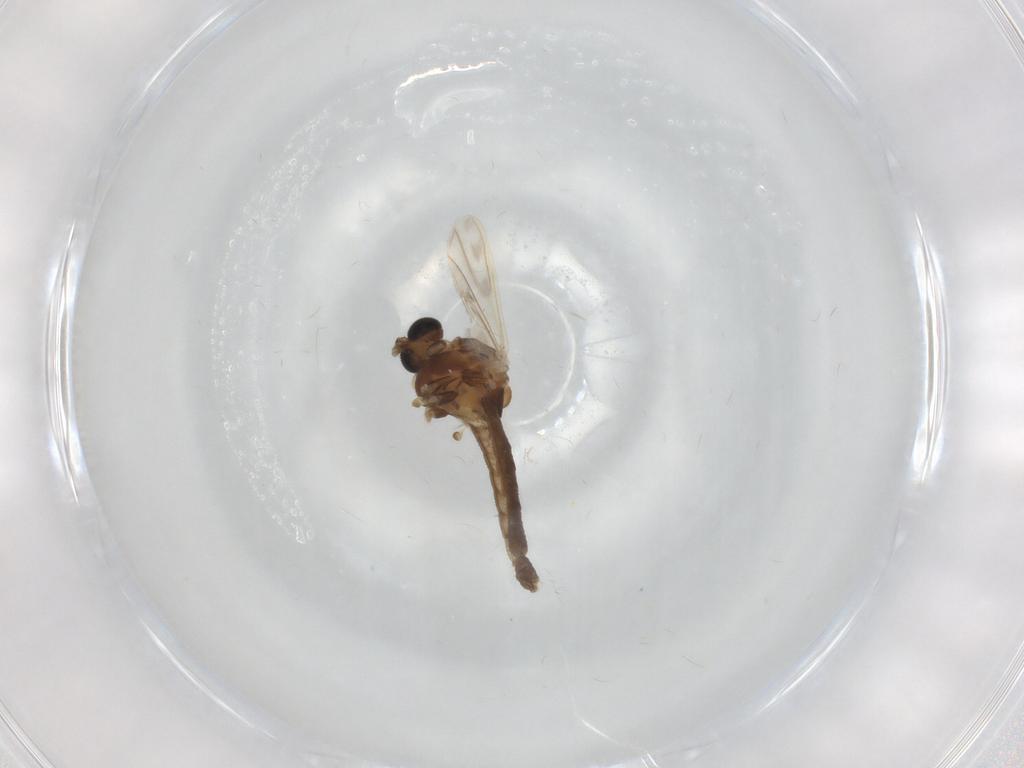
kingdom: Animalia
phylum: Arthropoda
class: Insecta
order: Diptera
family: Chironomidae
